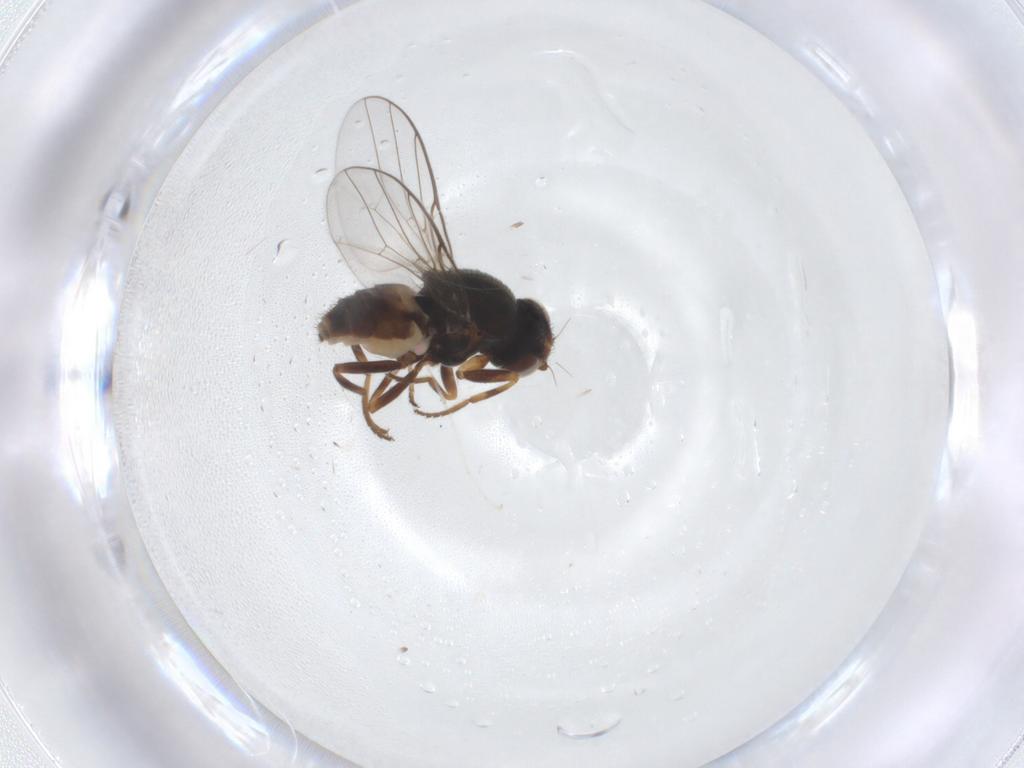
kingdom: Animalia
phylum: Arthropoda
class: Insecta
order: Diptera
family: Chloropidae
